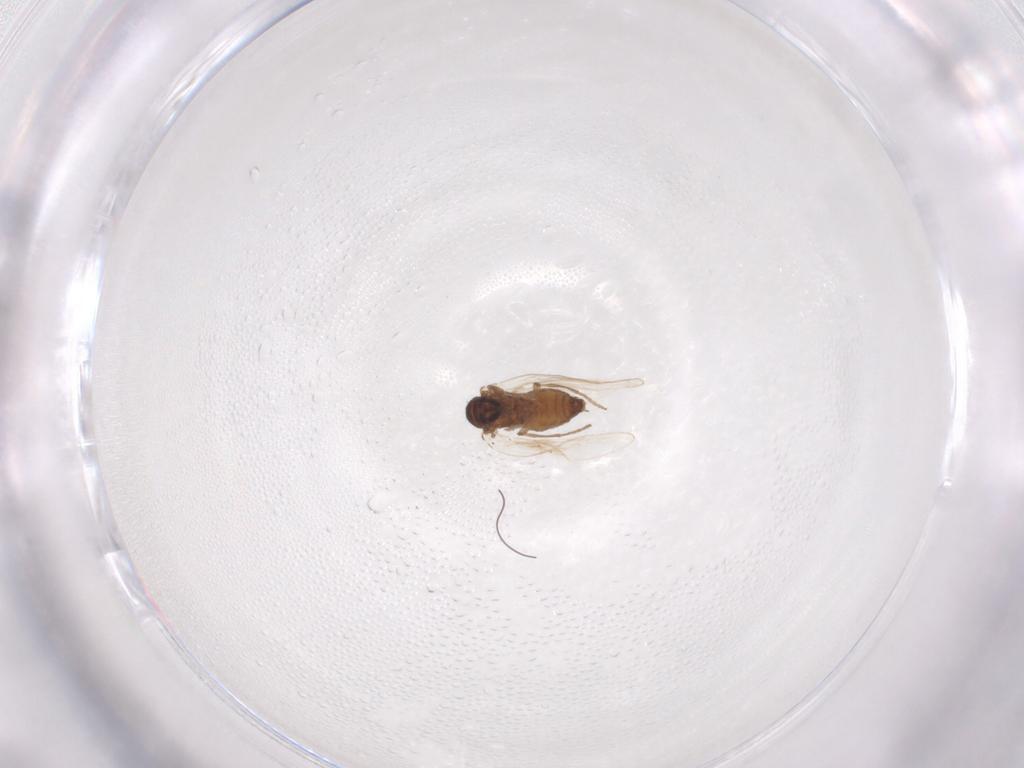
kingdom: Animalia
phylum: Arthropoda
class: Insecta
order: Diptera
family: Psychodidae
